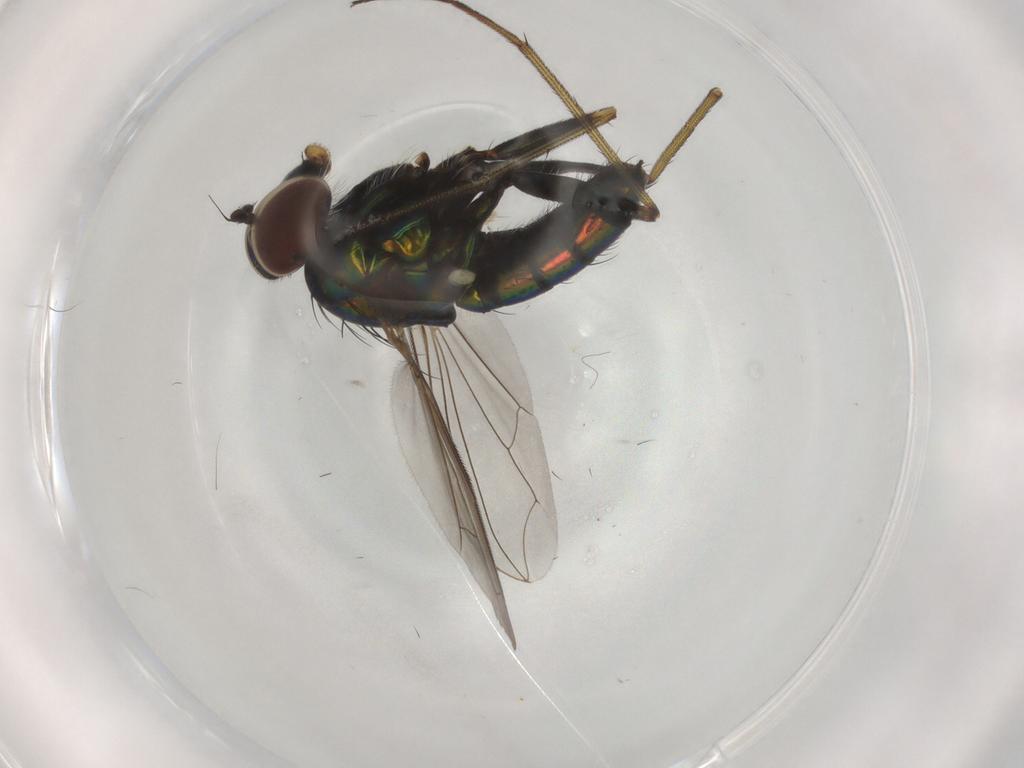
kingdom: Animalia
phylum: Arthropoda
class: Insecta
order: Diptera
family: Dolichopodidae
